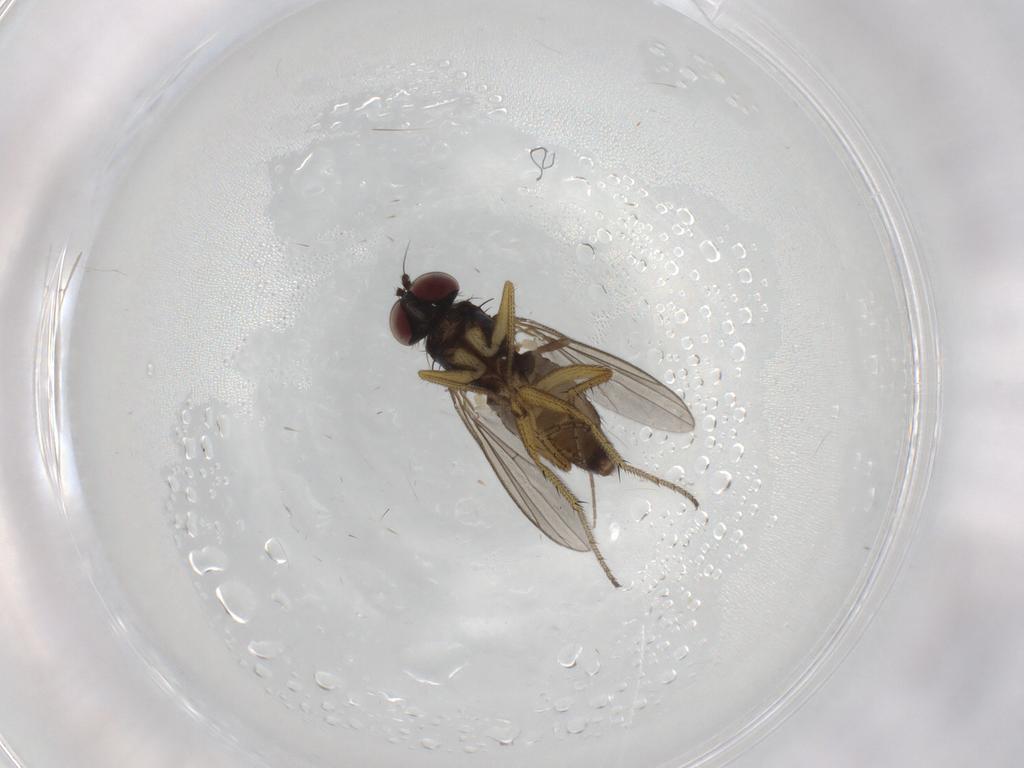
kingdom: Animalia
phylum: Arthropoda
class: Insecta
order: Diptera
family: Dolichopodidae
